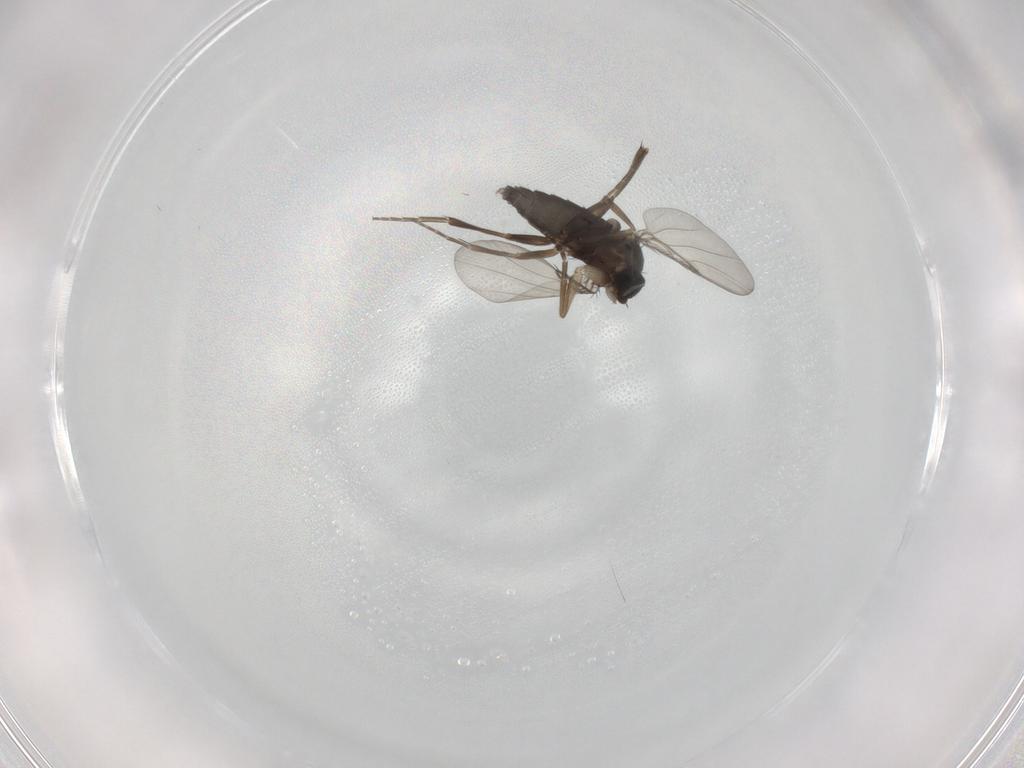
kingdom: Animalia
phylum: Arthropoda
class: Insecta
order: Diptera
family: Phoridae
